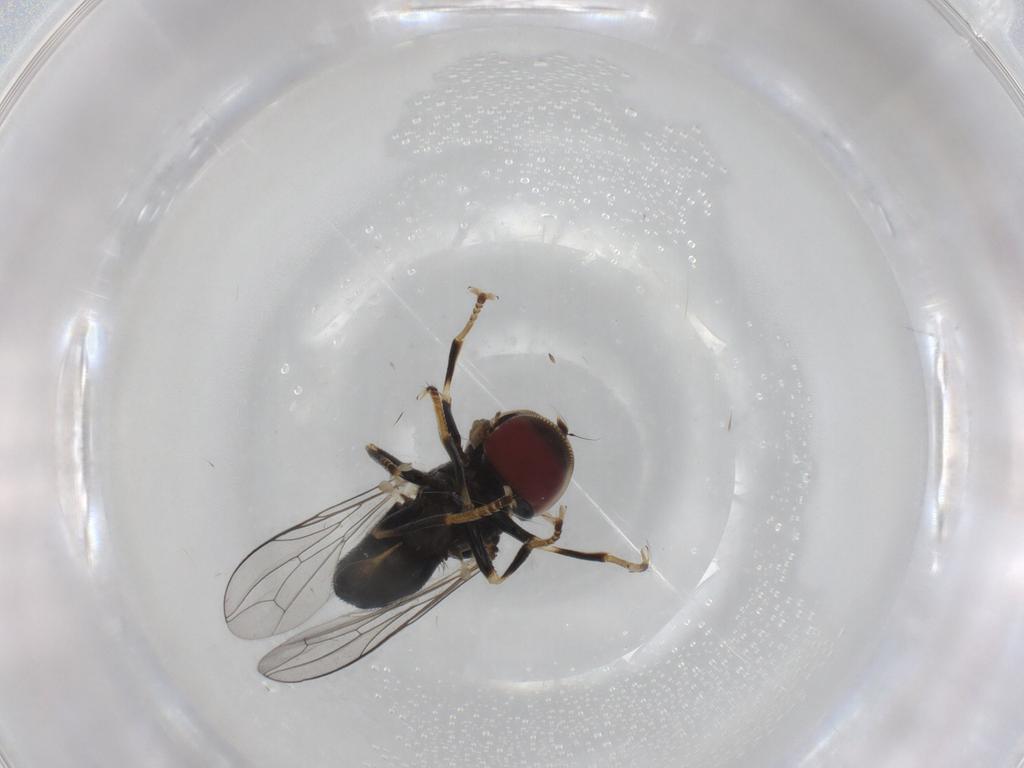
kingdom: Animalia
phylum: Arthropoda
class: Insecta
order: Diptera
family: Pipunculidae
